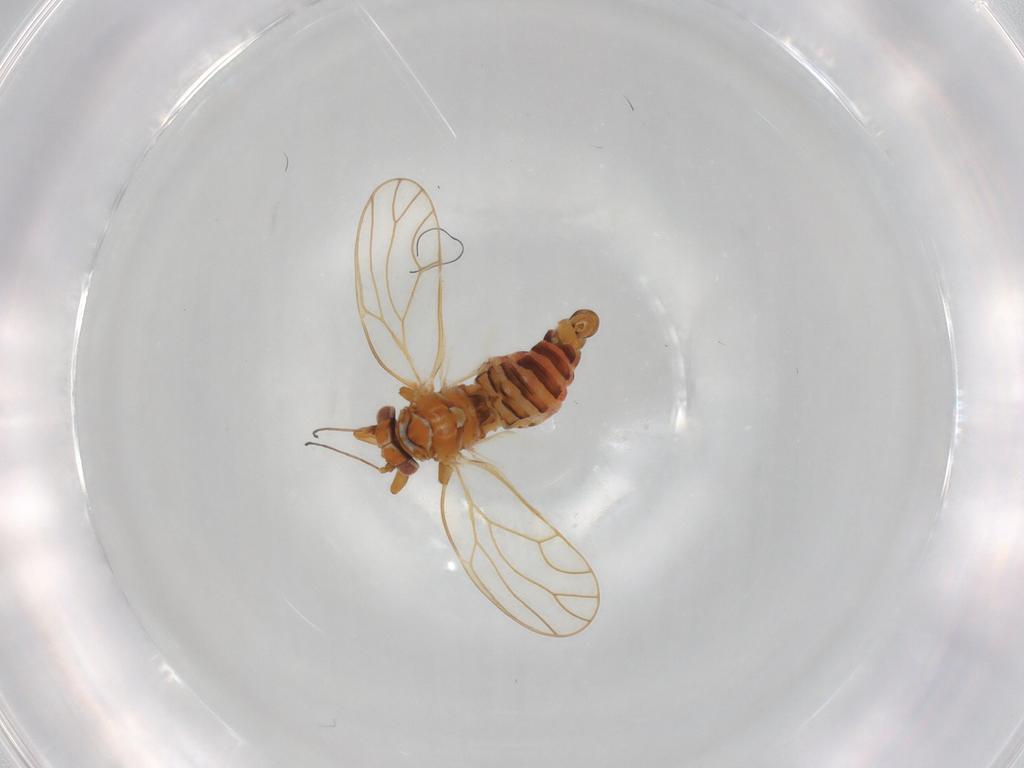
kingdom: Animalia
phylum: Arthropoda
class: Insecta
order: Hemiptera
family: Cicadellidae
